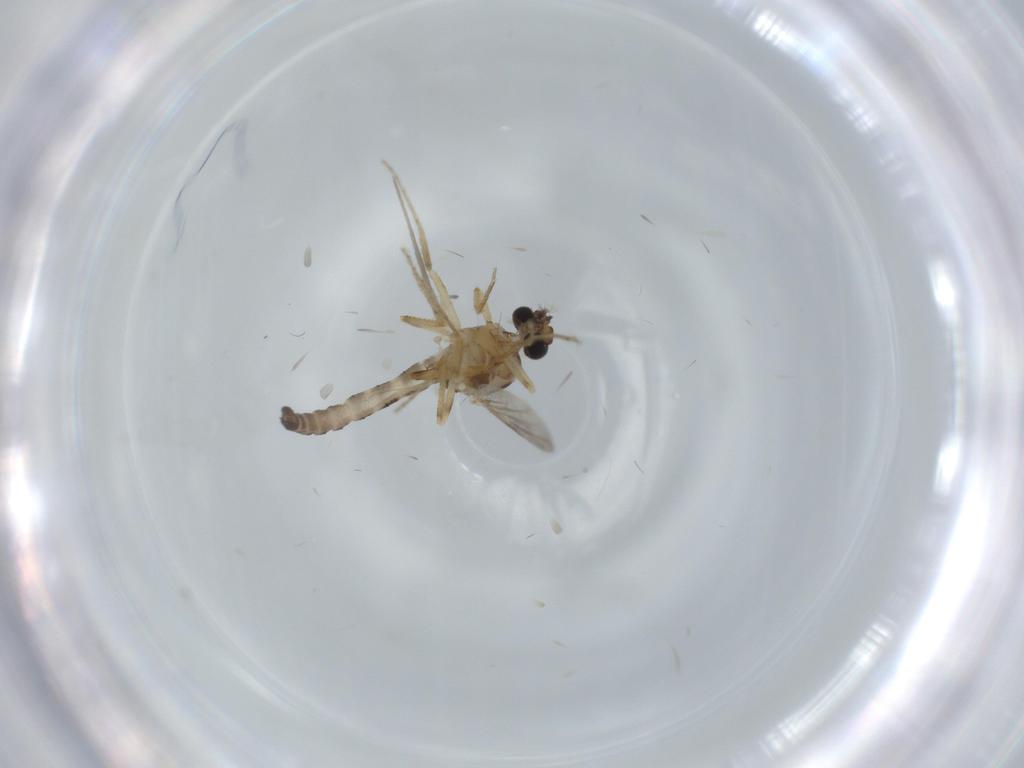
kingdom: Animalia
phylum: Arthropoda
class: Insecta
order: Diptera
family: Ceratopogonidae
